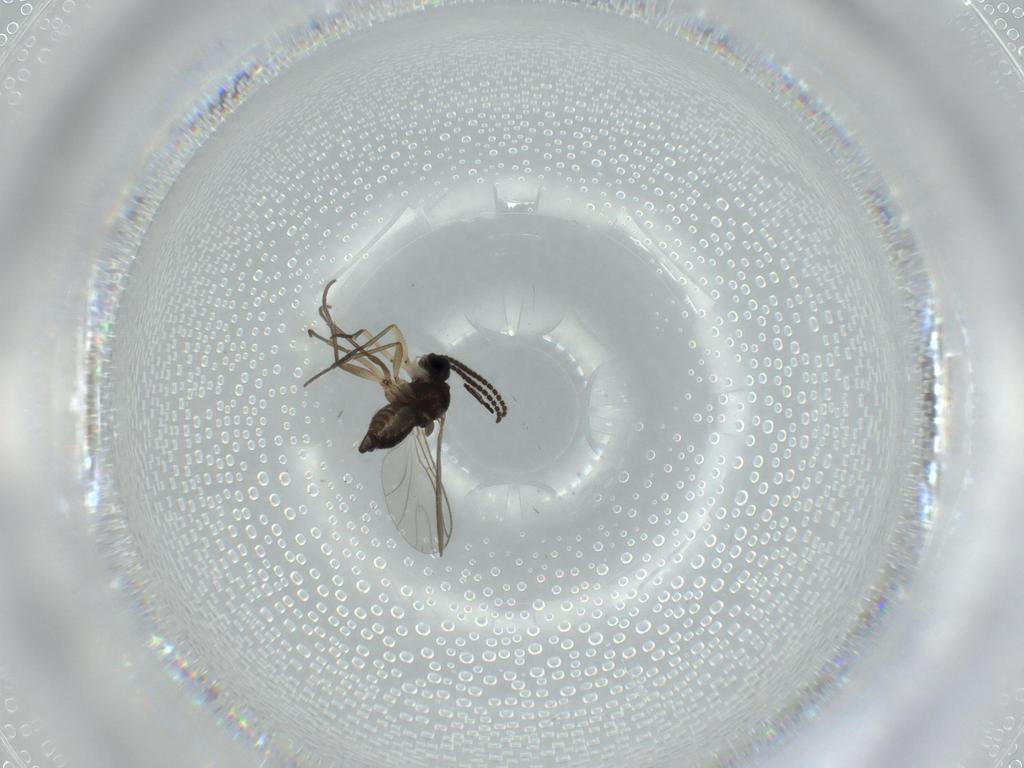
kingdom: Animalia
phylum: Arthropoda
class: Insecta
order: Diptera
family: Sciaridae
